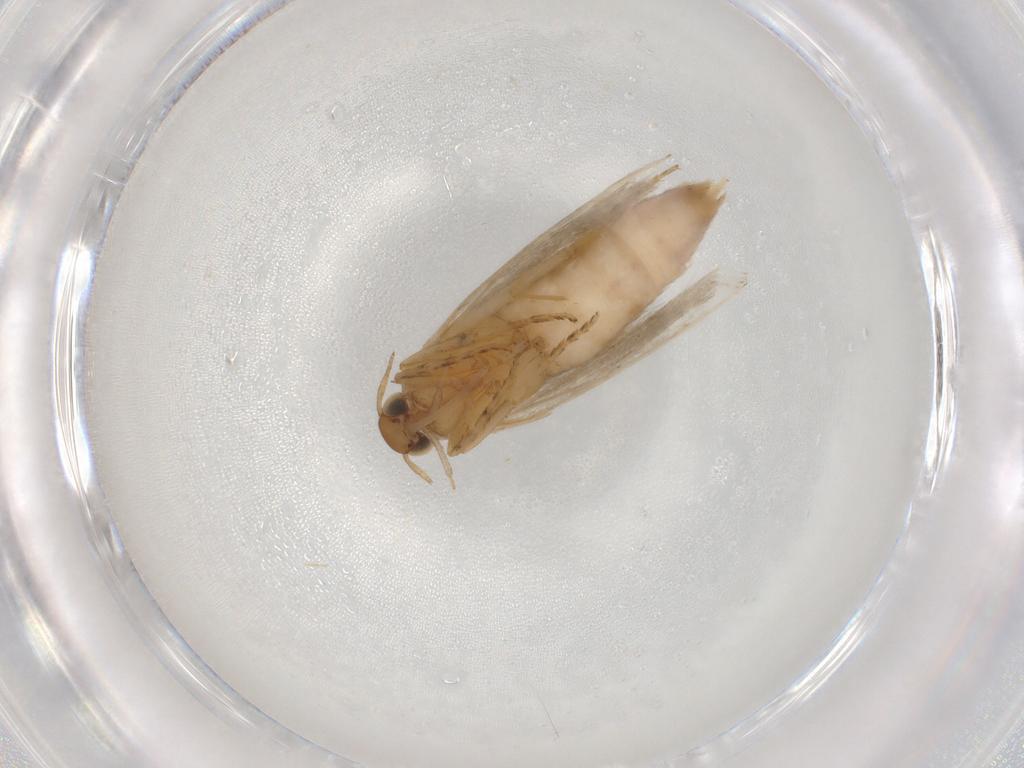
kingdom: Animalia
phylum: Arthropoda
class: Insecta
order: Lepidoptera
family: Gelechiidae
